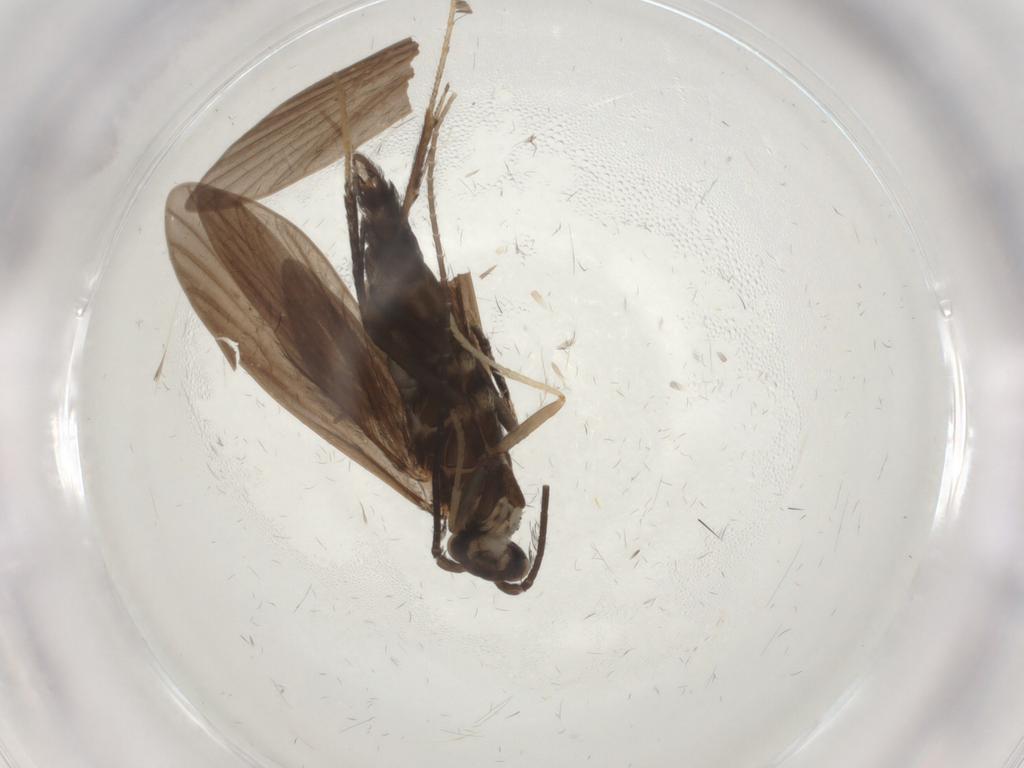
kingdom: Animalia
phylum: Arthropoda
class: Insecta
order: Trichoptera
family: Xiphocentronidae
